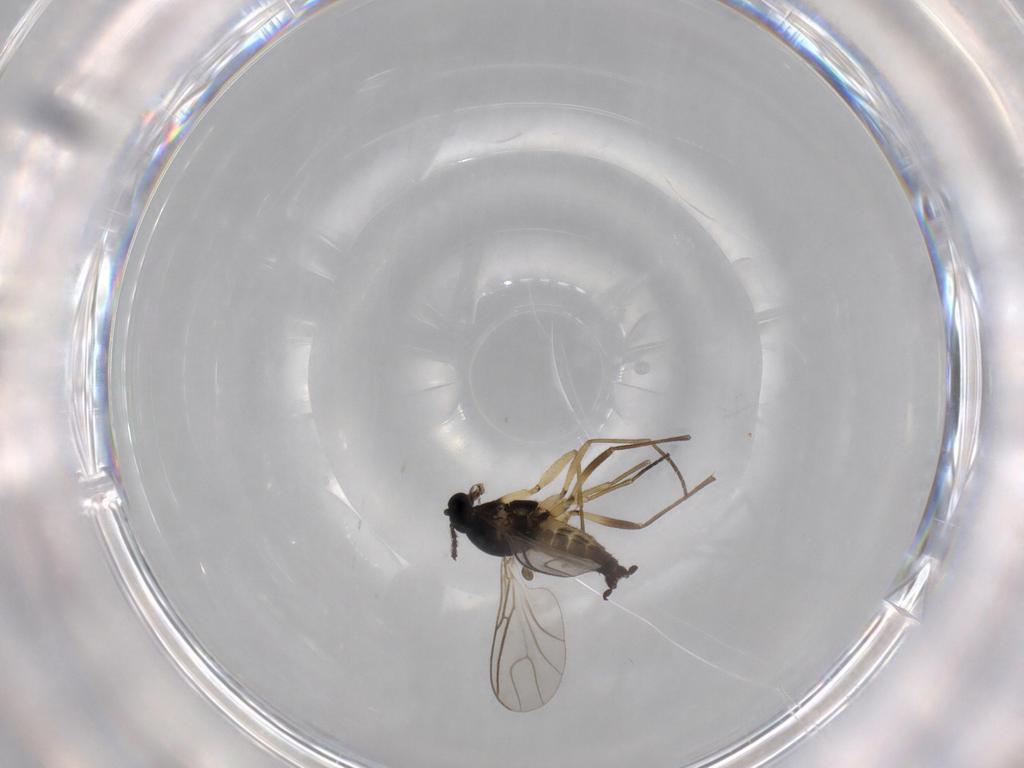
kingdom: Animalia
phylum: Arthropoda
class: Insecta
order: Diptera
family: Sciaridae
